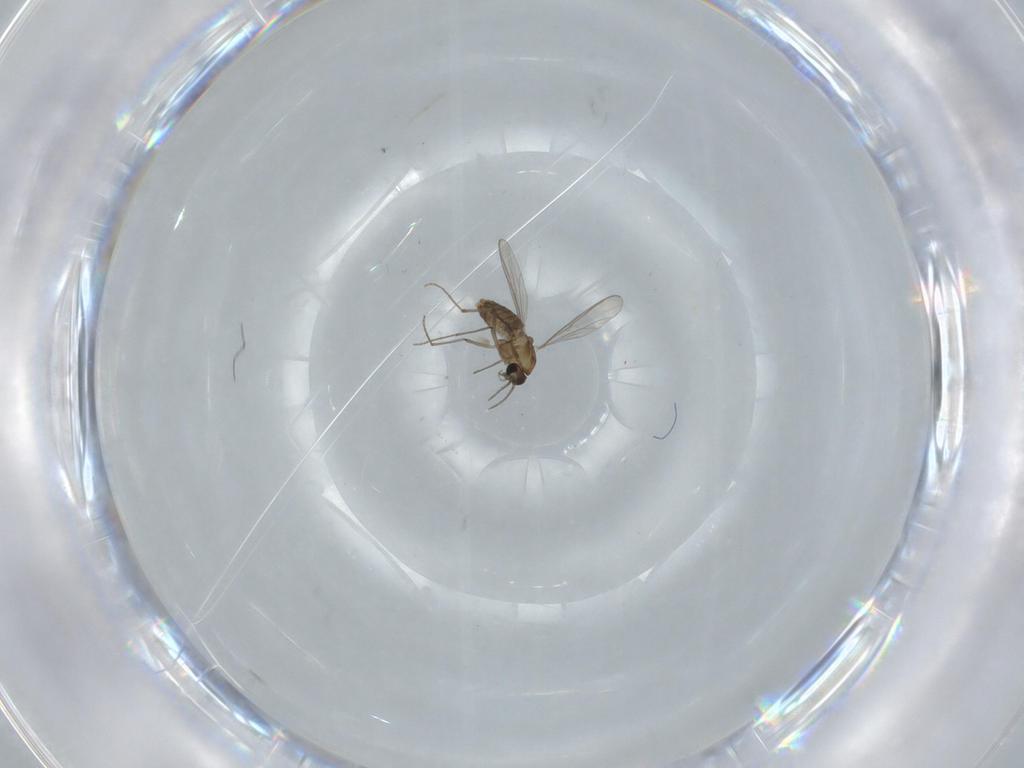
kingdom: Animalia
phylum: Arthropoda
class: Insecta
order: Diptera
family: Chironomidae
